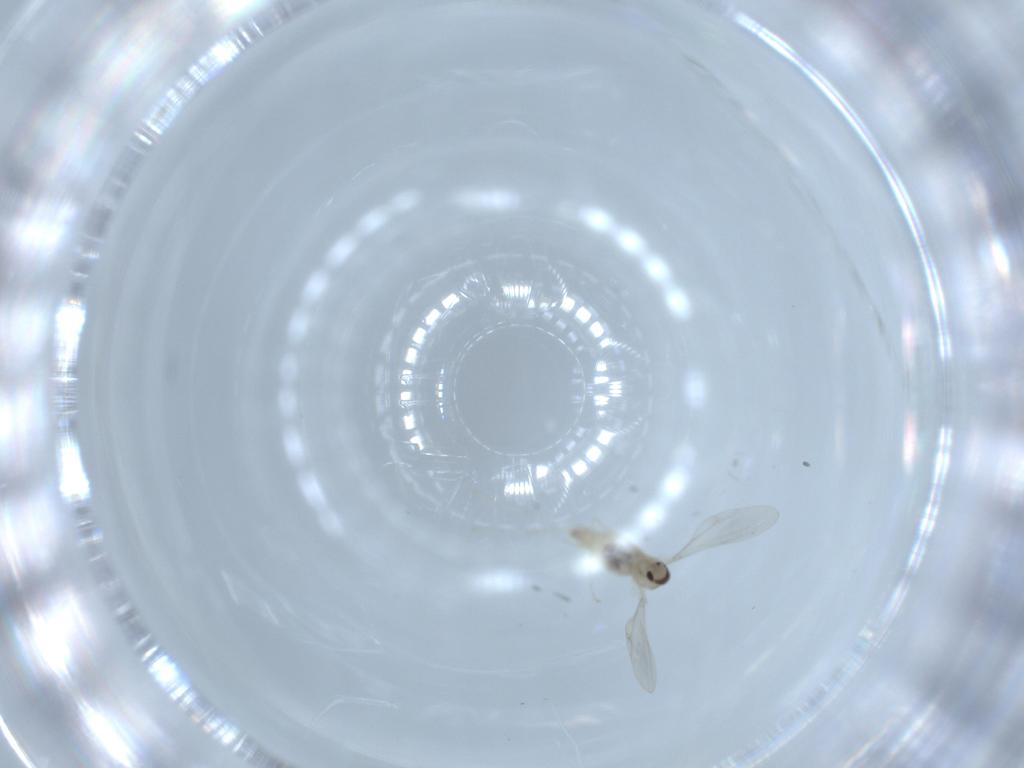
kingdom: Animalia
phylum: Arthropoda
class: Insecta
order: Diptera
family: Cecidomyiidae
